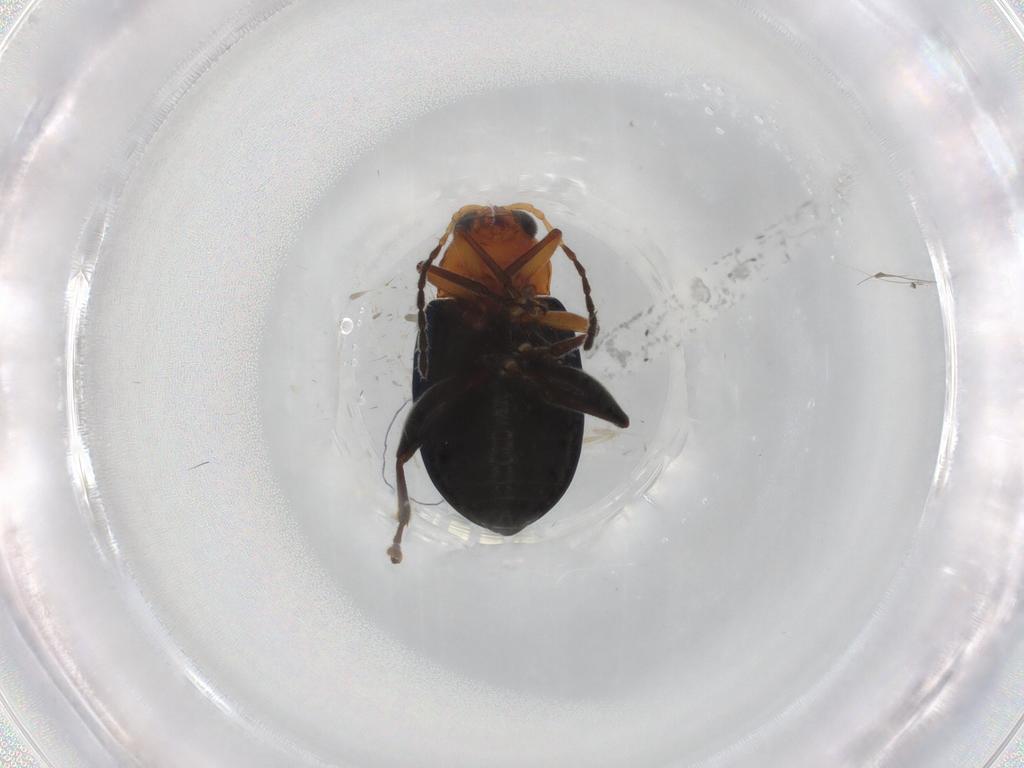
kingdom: Animalia
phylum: Arthropoda
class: Insecta
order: Coleoptera
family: Chrysomelidae
